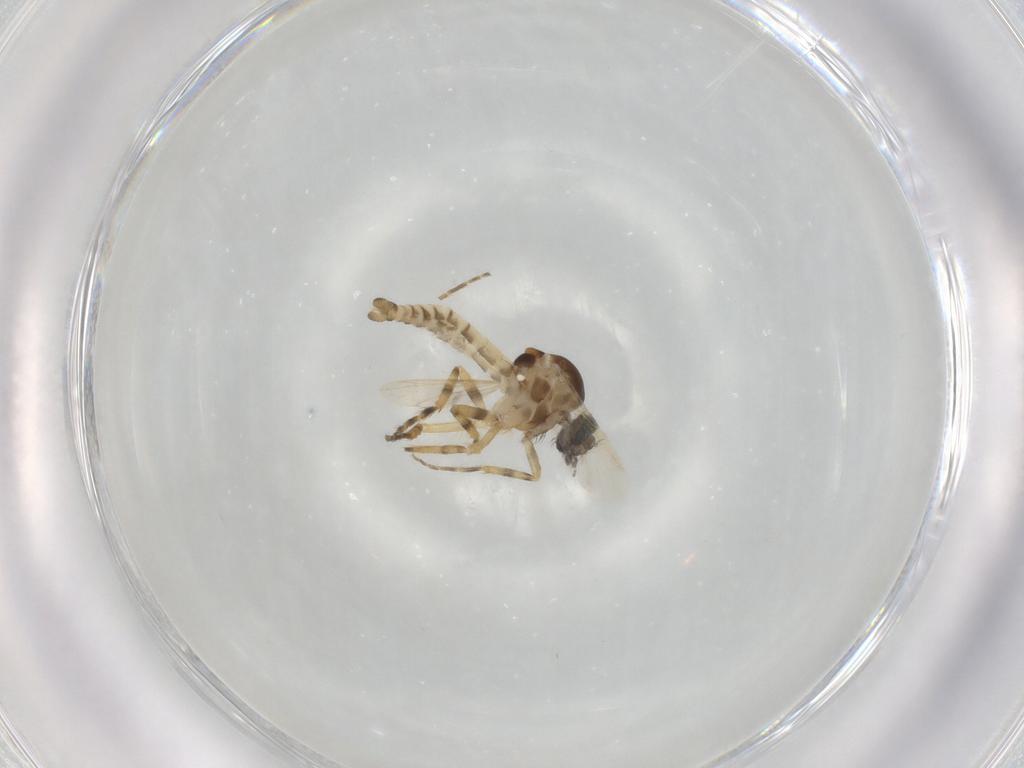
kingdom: Animalia
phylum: Arthropoda
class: Insecta
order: Diptera
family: Ceratopogonidae
